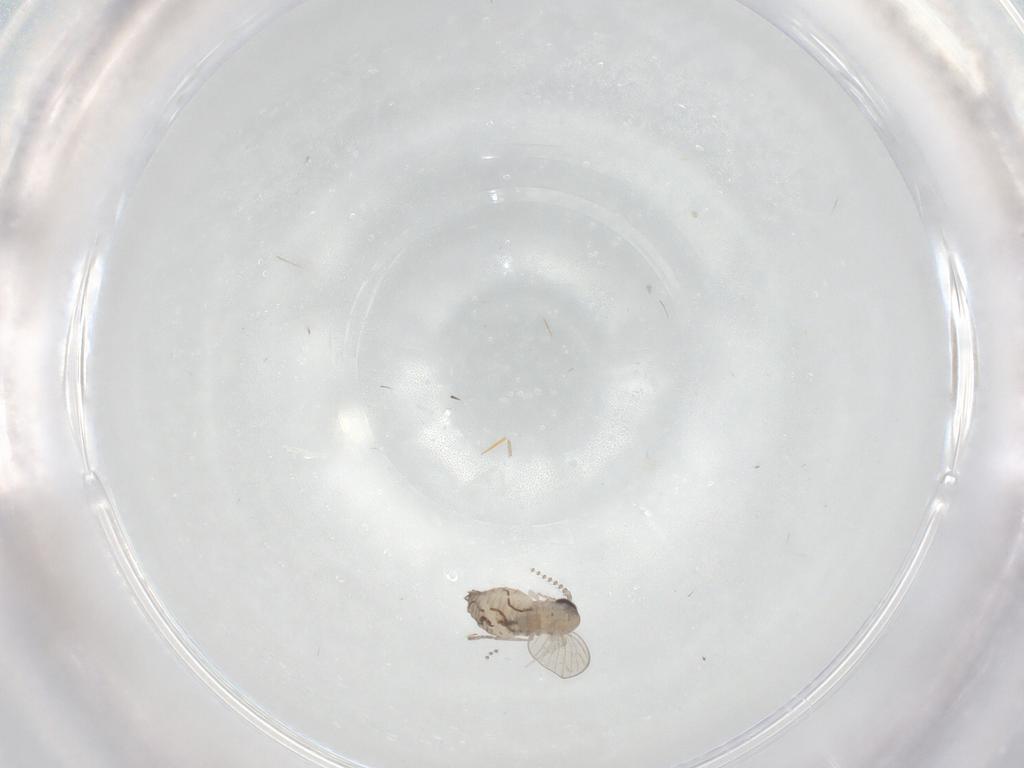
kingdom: Animalia
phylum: Arthropoda
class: Insecta
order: Diptera
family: Psychodidae
